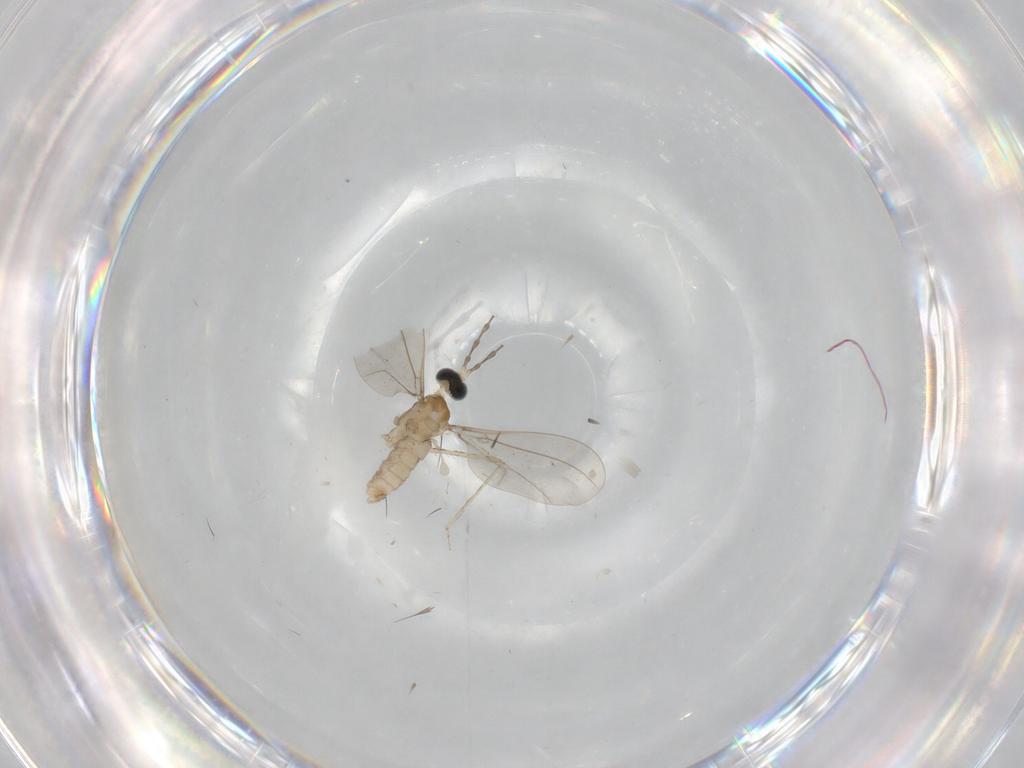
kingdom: Animalia
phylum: Arthropoda
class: Insecta
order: Diptera
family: Cecidomyiidae
